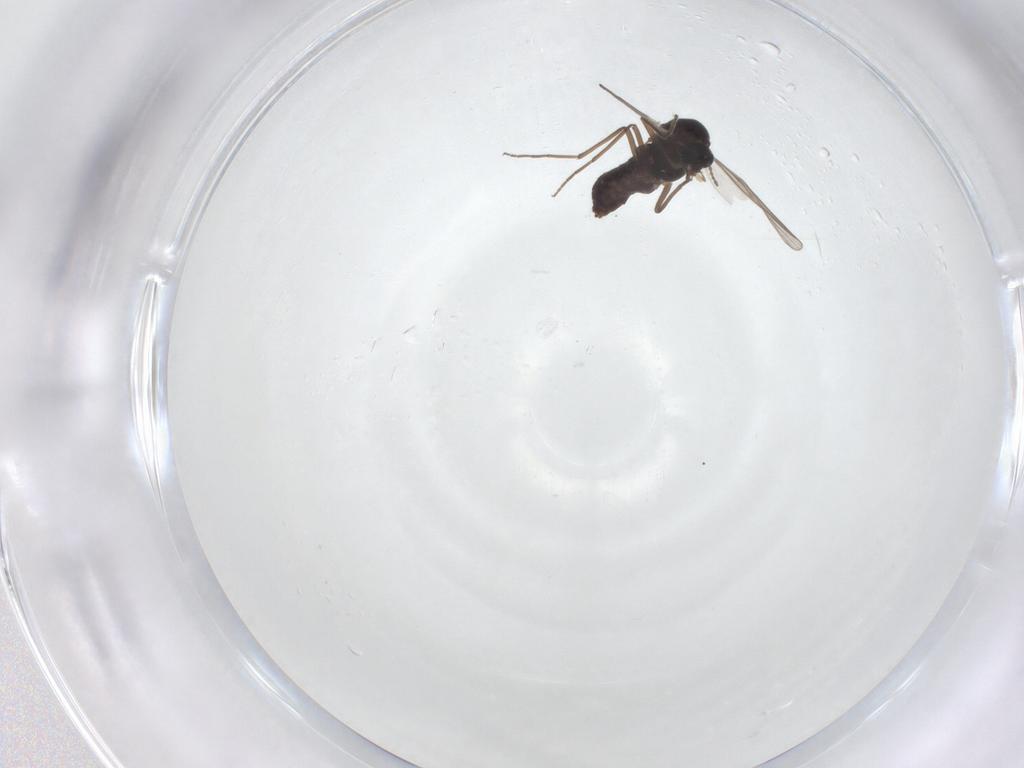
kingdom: Animalia
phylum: Arthropoda
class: Insecta
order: Diptera
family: Chironomidae
